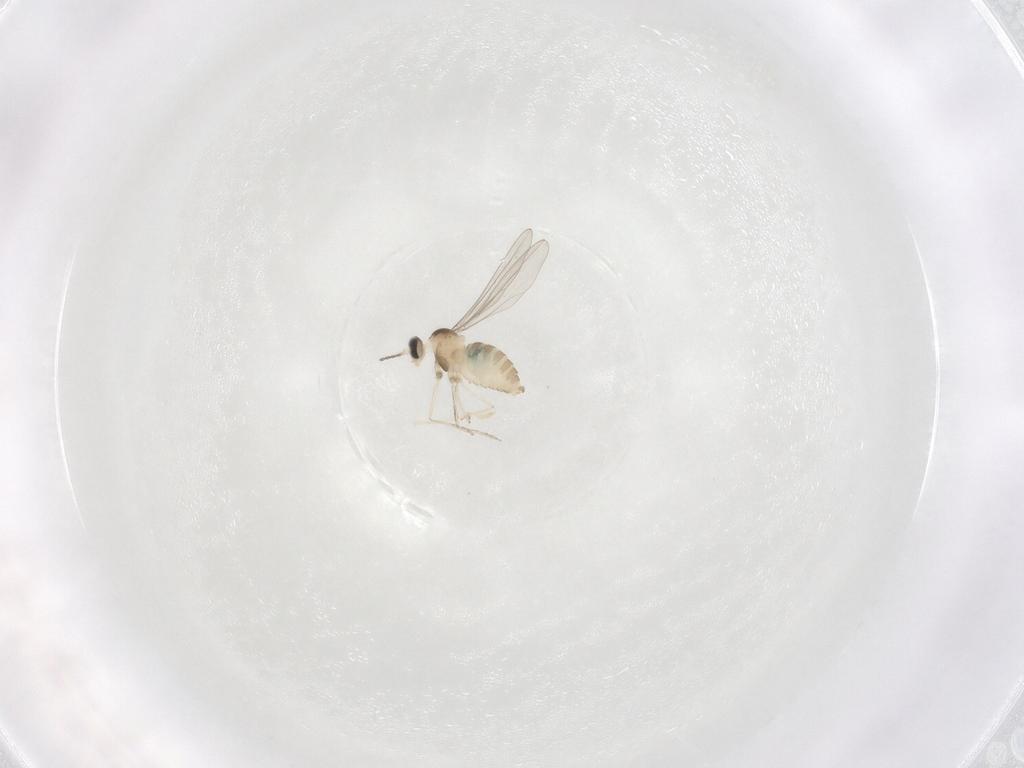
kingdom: Animalia
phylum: Arthropoda
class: Insecta
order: Diptera
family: Cecidomyiidae
